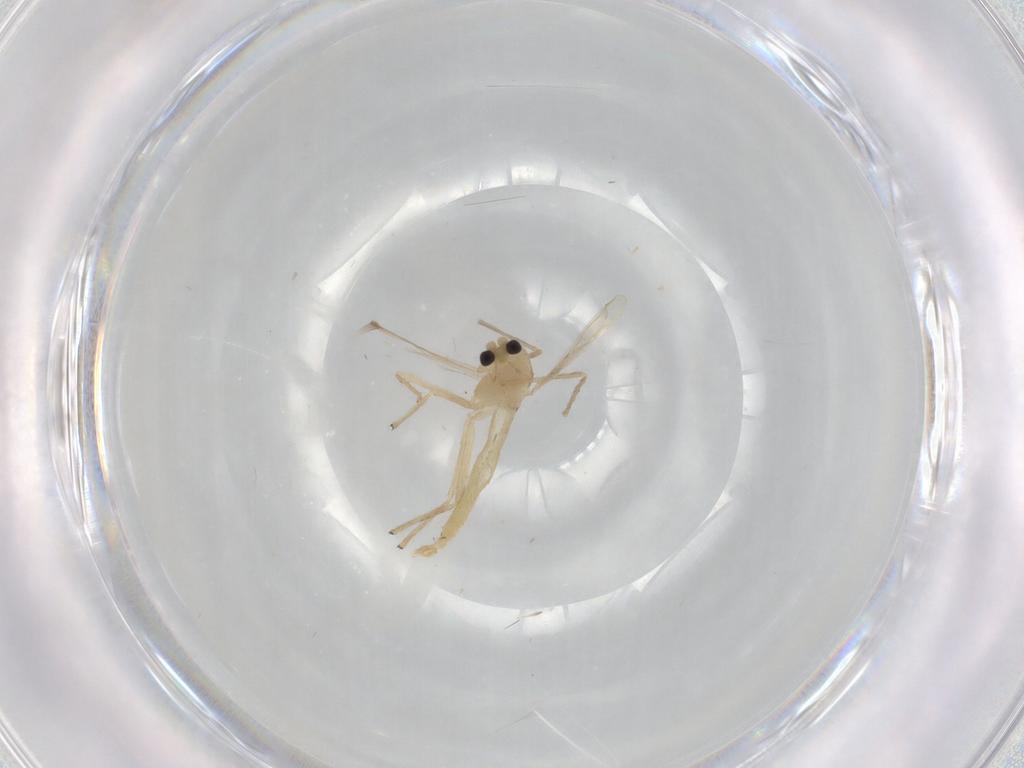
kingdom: Animalia
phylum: Arthropoda
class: Insecta
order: Diptera
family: Chironomidae
